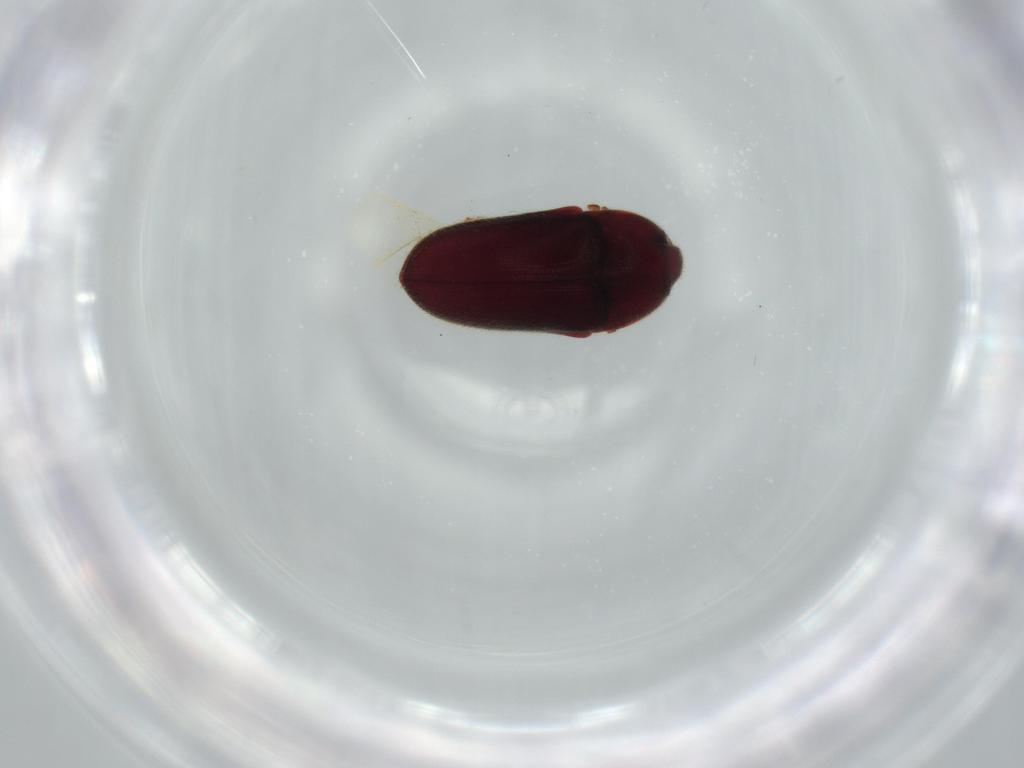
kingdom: Animalia
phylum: Arthropoda
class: Insecta
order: Coleoptera
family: Throscidae
